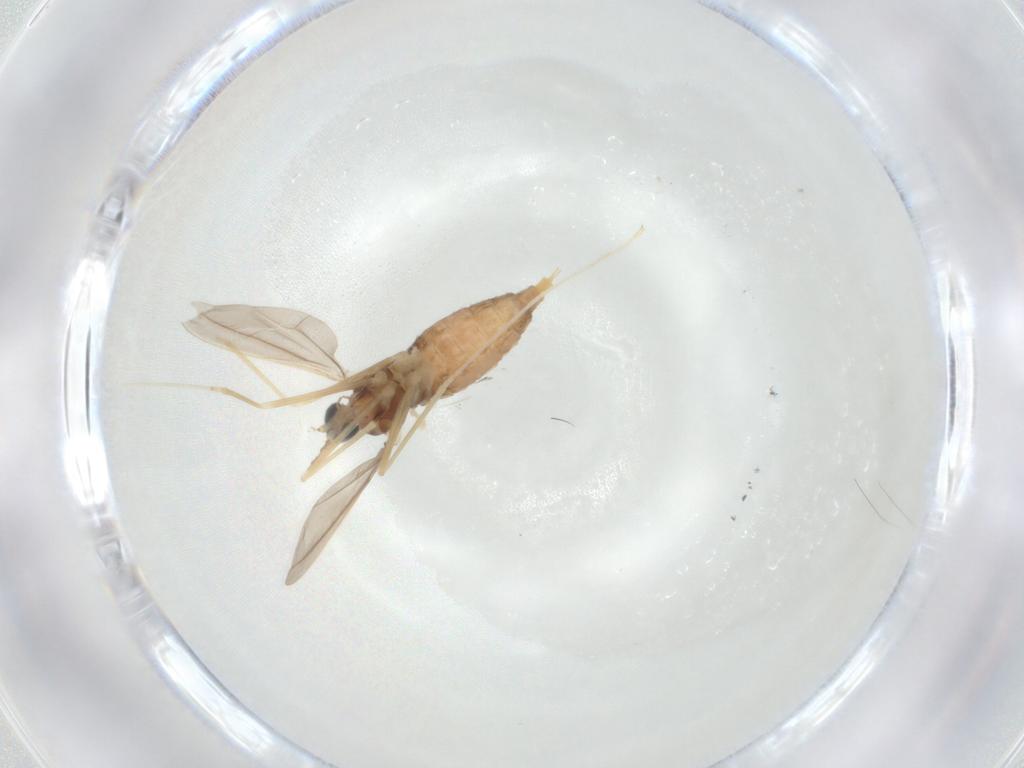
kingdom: Animalia
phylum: Arthropoda
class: Insecta
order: Diptera
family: Cecidomyiidae
